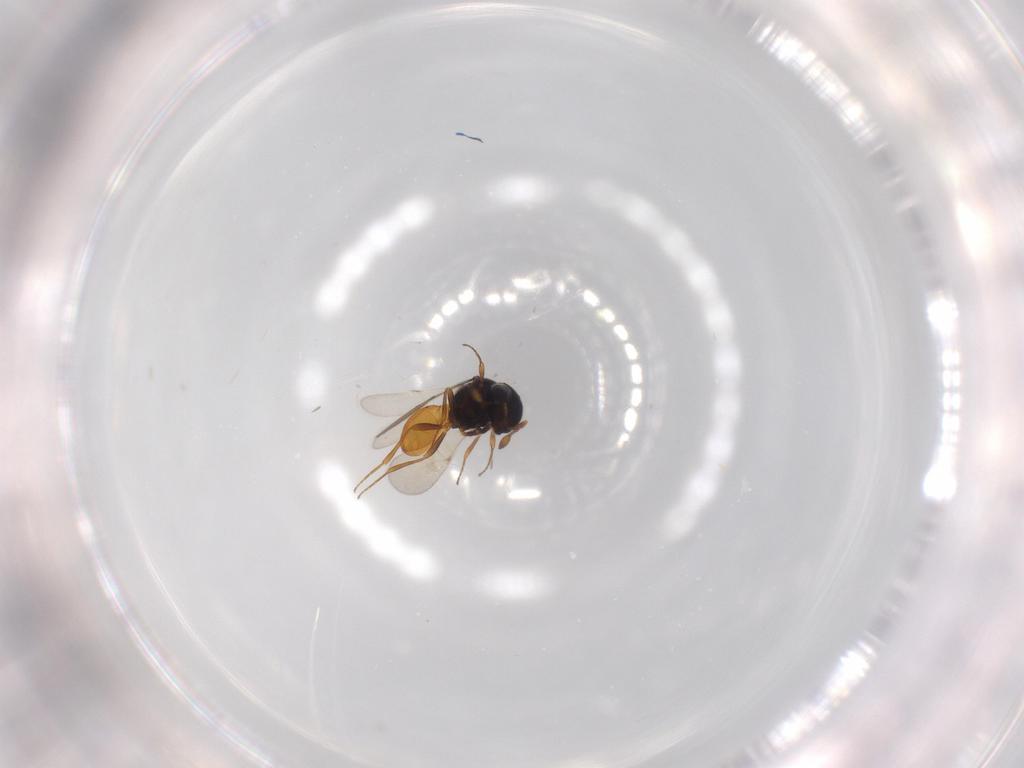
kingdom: Animalia
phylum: Arthropoda
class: Insecta
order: Hymenoptera
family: Scelionidae
